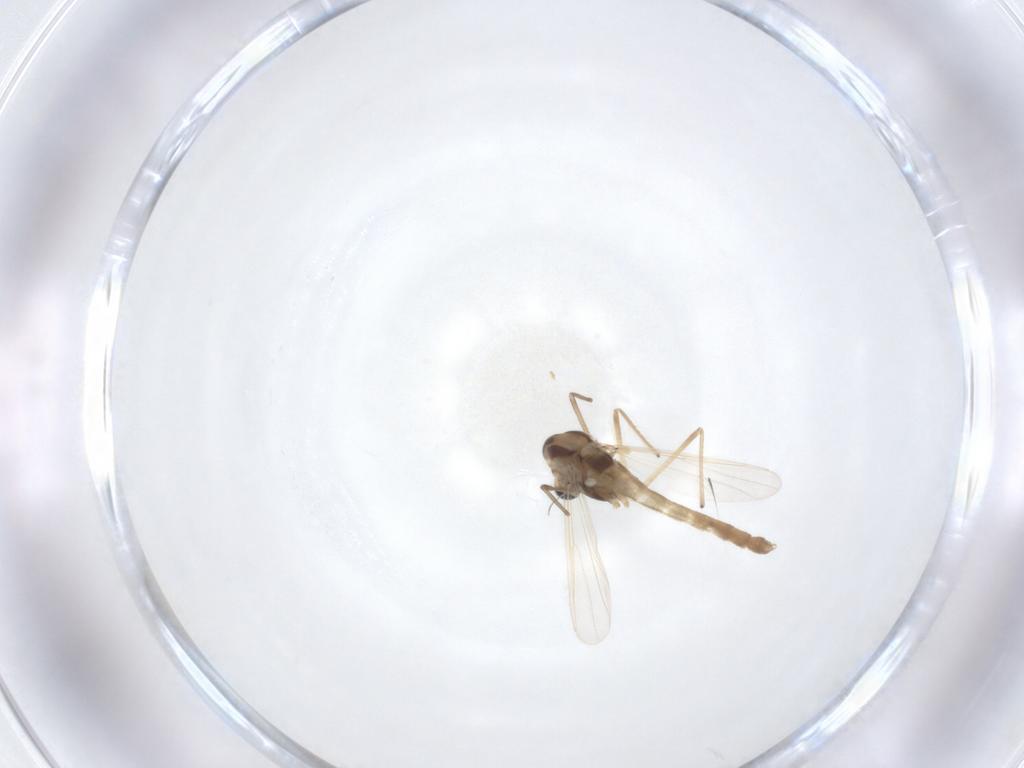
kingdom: Animalia
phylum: Arthropoda
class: Insecta
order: Diptera
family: Chironomidae
